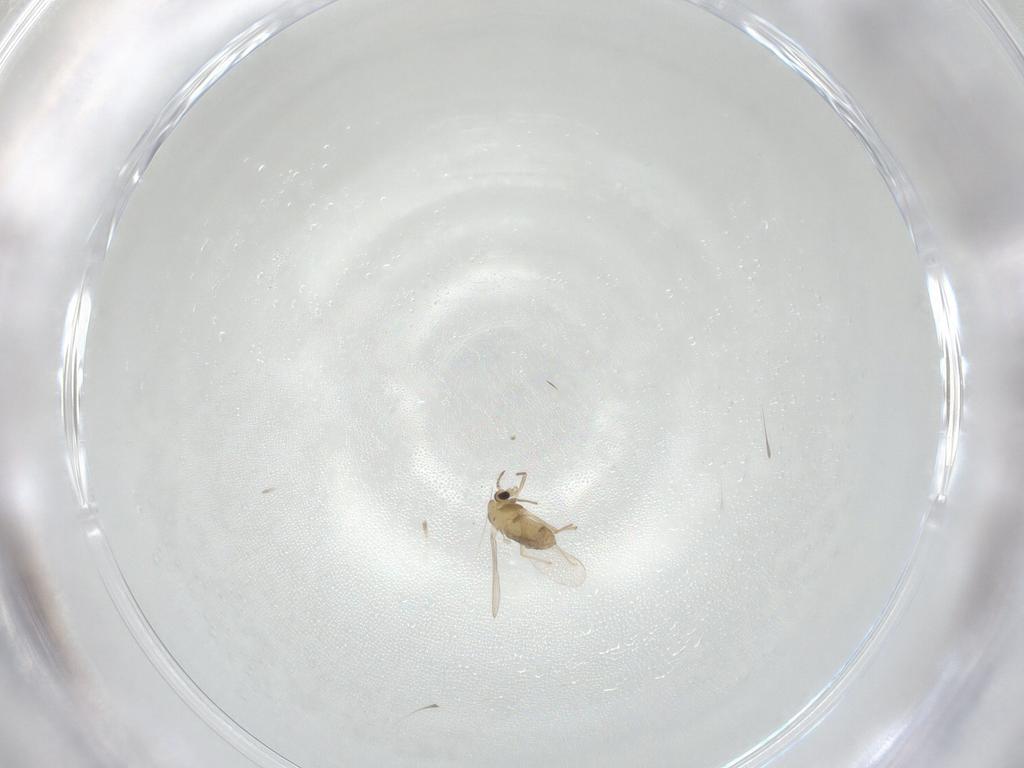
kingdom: Animalia
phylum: Arthropoda
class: Insecta
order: Diptera
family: Chironomidae
